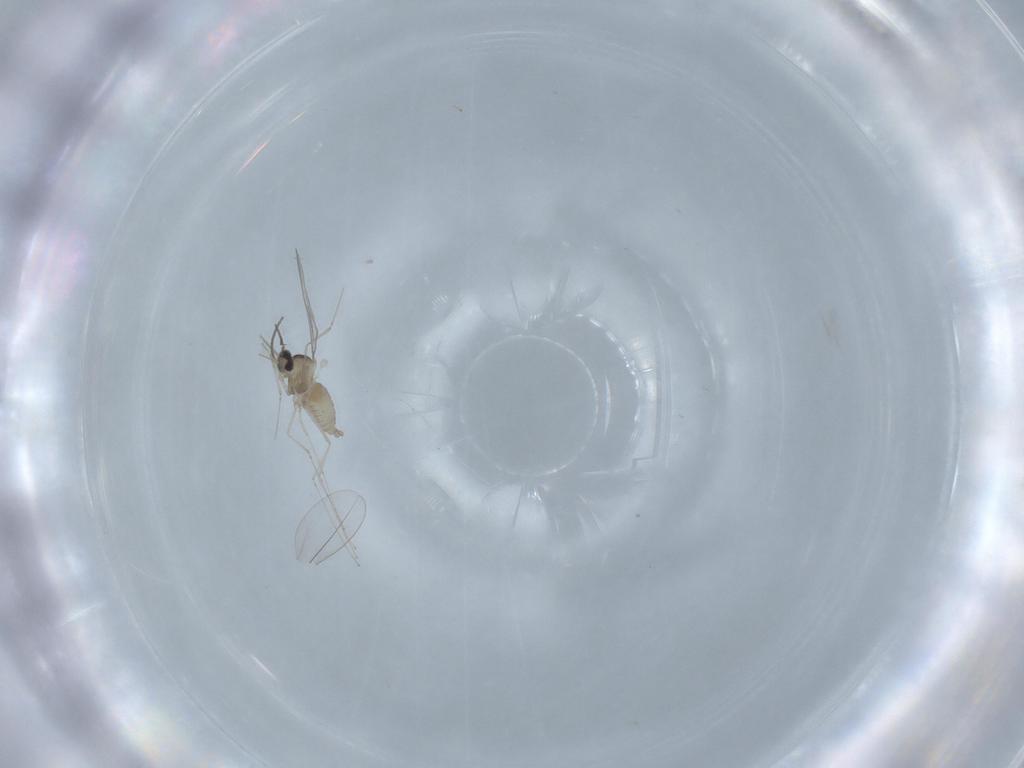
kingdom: Animalia
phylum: Arthropoda
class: Insecta
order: Diptera
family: Cecidomyiidae
